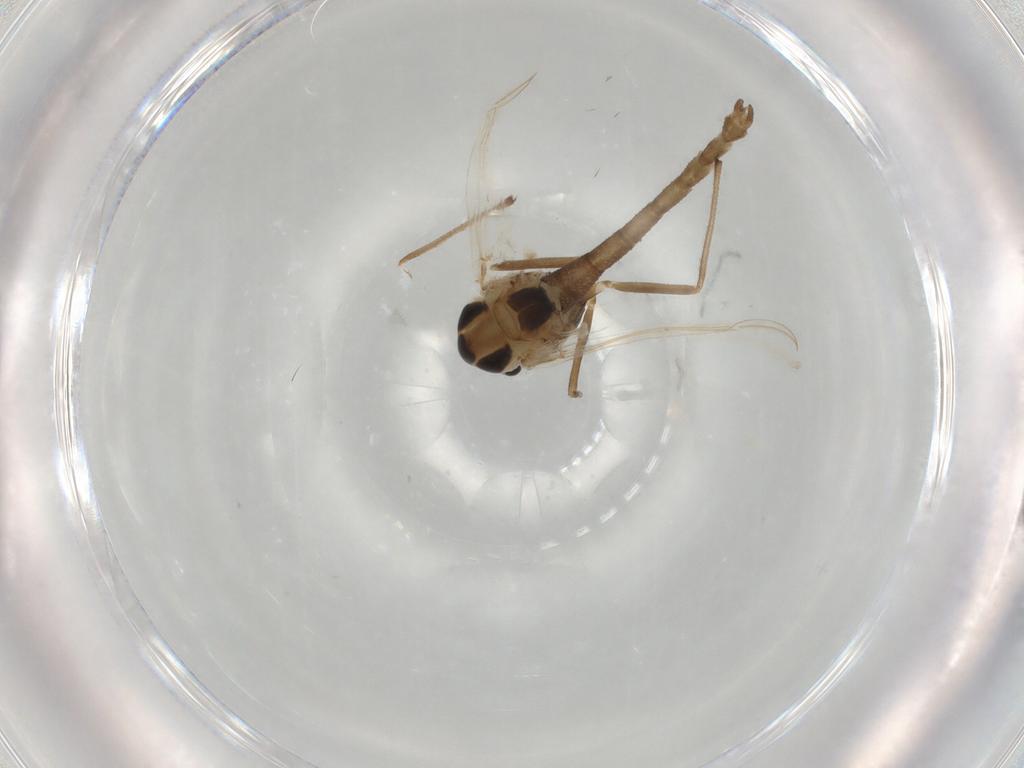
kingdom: Animalia
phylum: Arthropoda
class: Insecta
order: Diptera
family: Chironomidae
